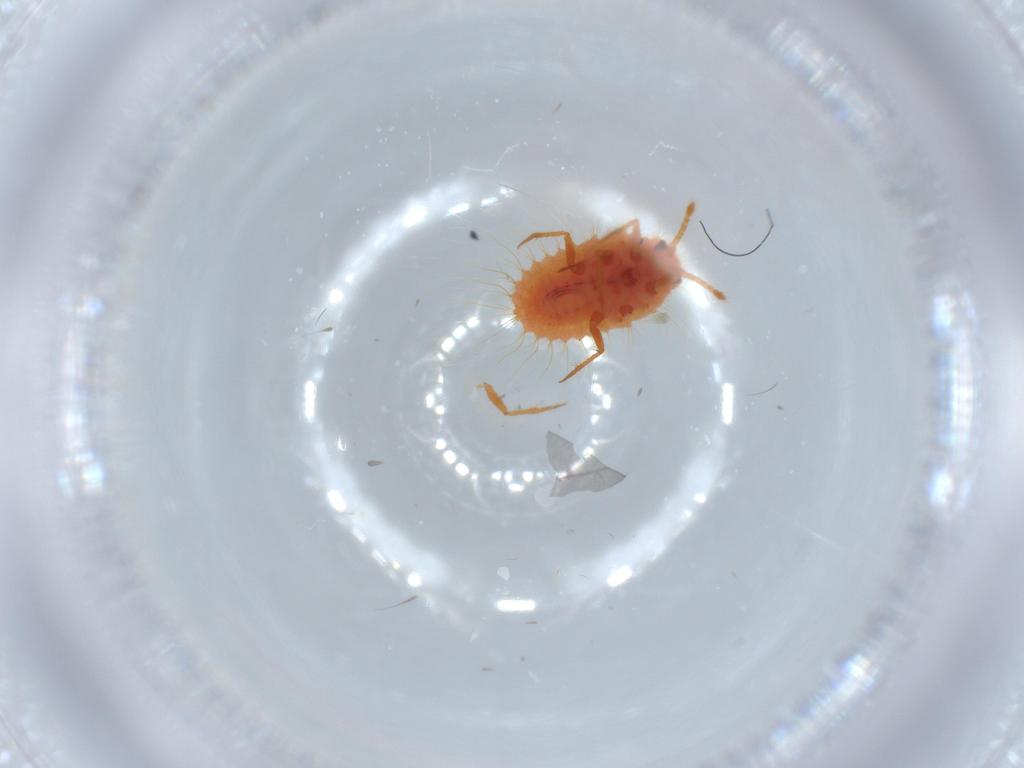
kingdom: Animalia
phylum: Arthropoda
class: Insecta
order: Hemiptera
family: Coccoidea_incertae_sedis
